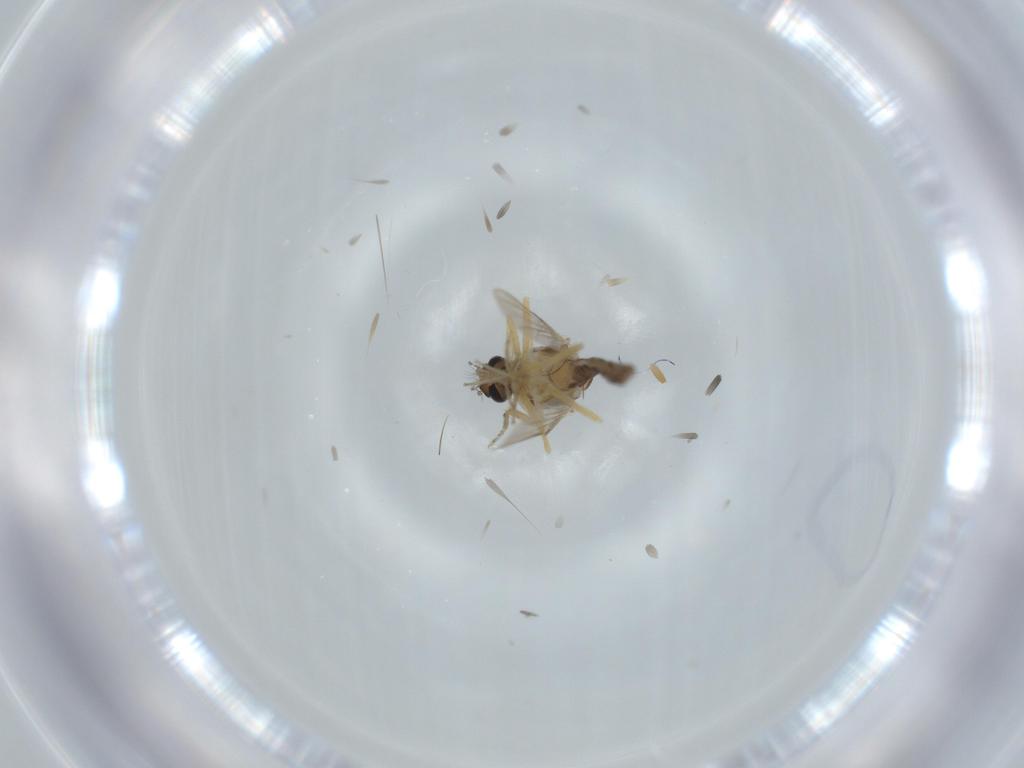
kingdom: Animalia
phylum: Arthropoda
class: Insecta
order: Diptera
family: Ceratopogonidae
